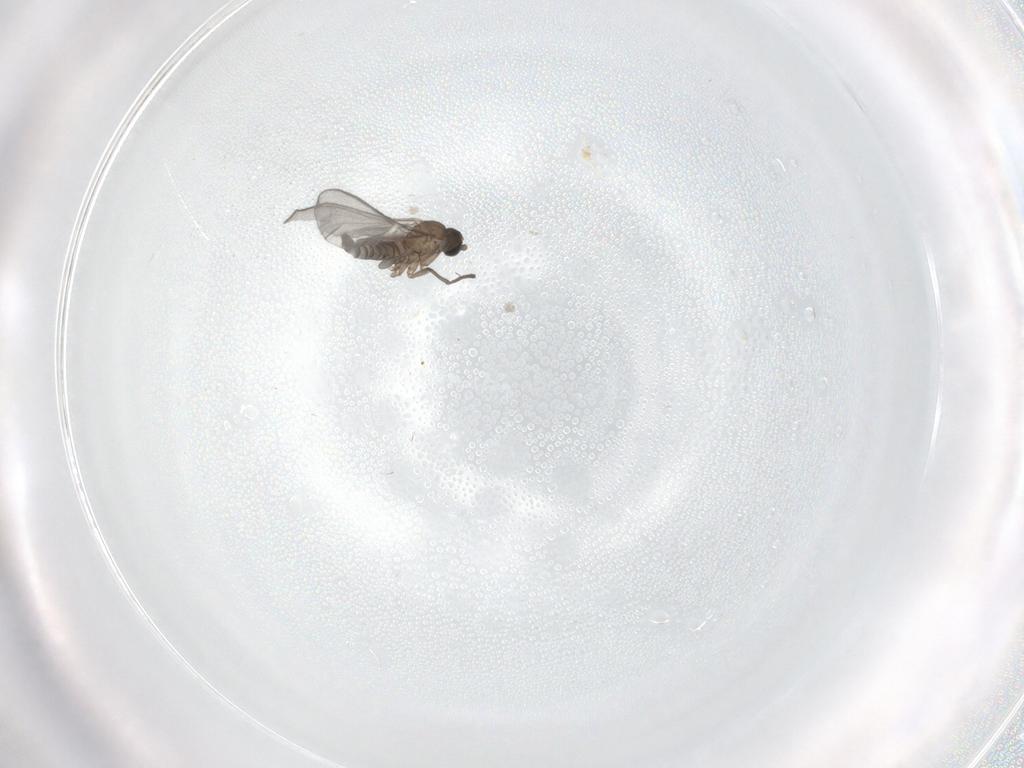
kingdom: Animalia
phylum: Arthropoda
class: Insecta
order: Diptera
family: Sciaridae
